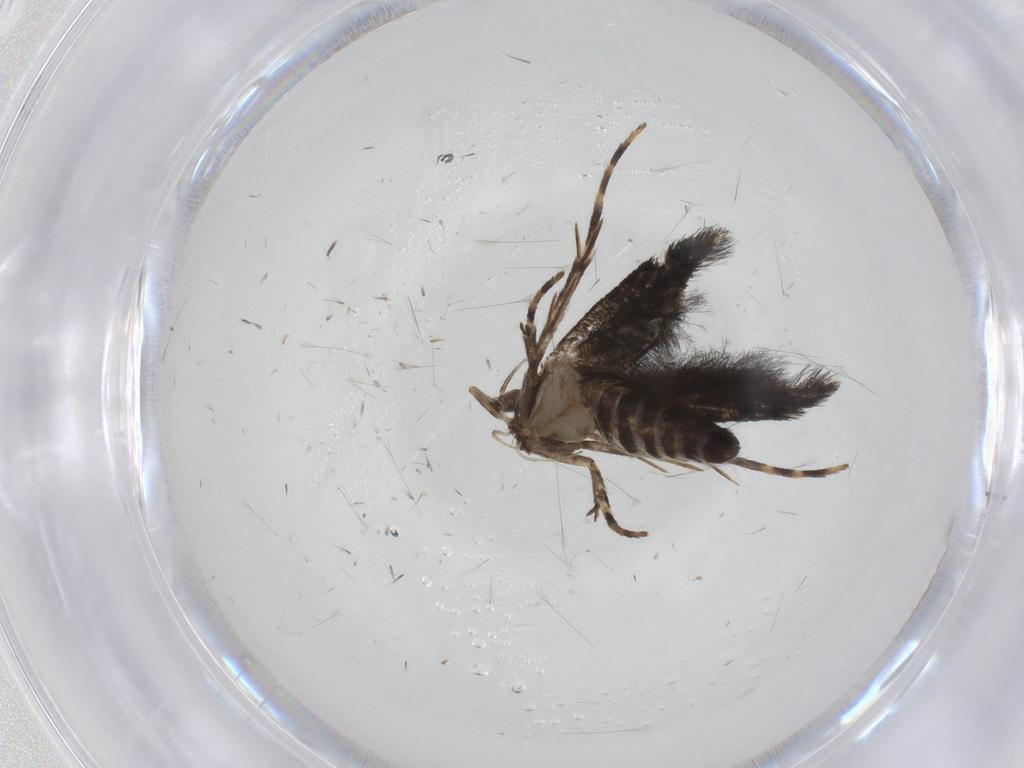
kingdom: Animalia
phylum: Arthropoda
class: Insecta
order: Lepidoptera
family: Cosmopterigidae
